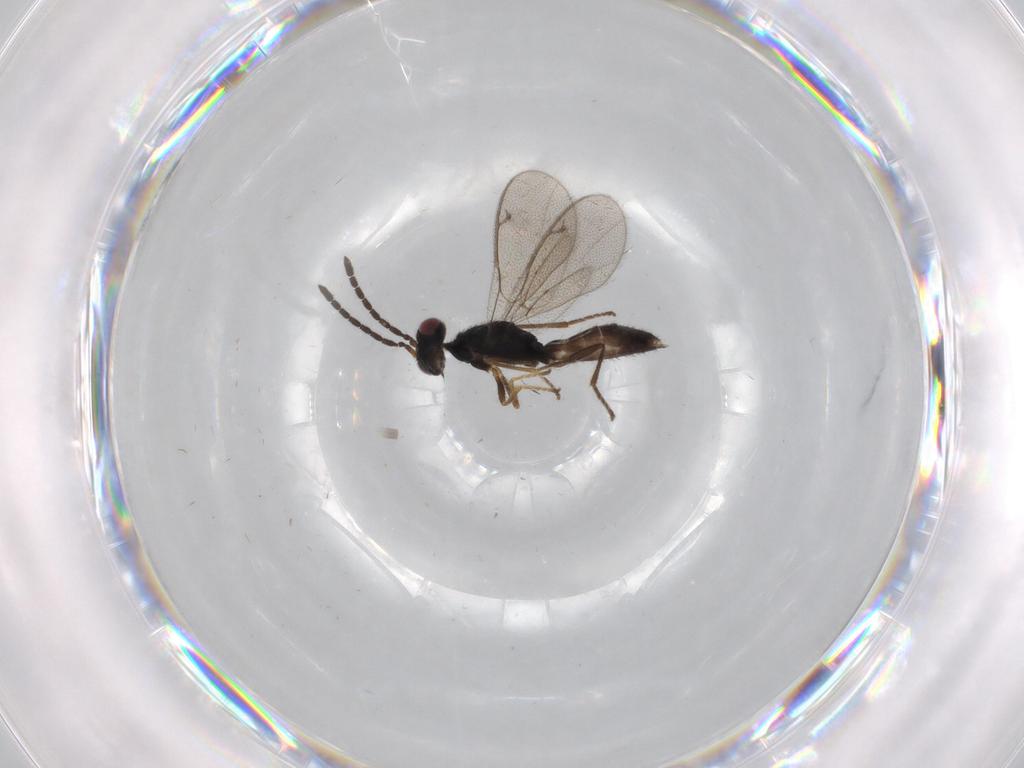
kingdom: Animalia
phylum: Arthropoda
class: Insecta
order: Hymenoptera
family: Pteromalidae
